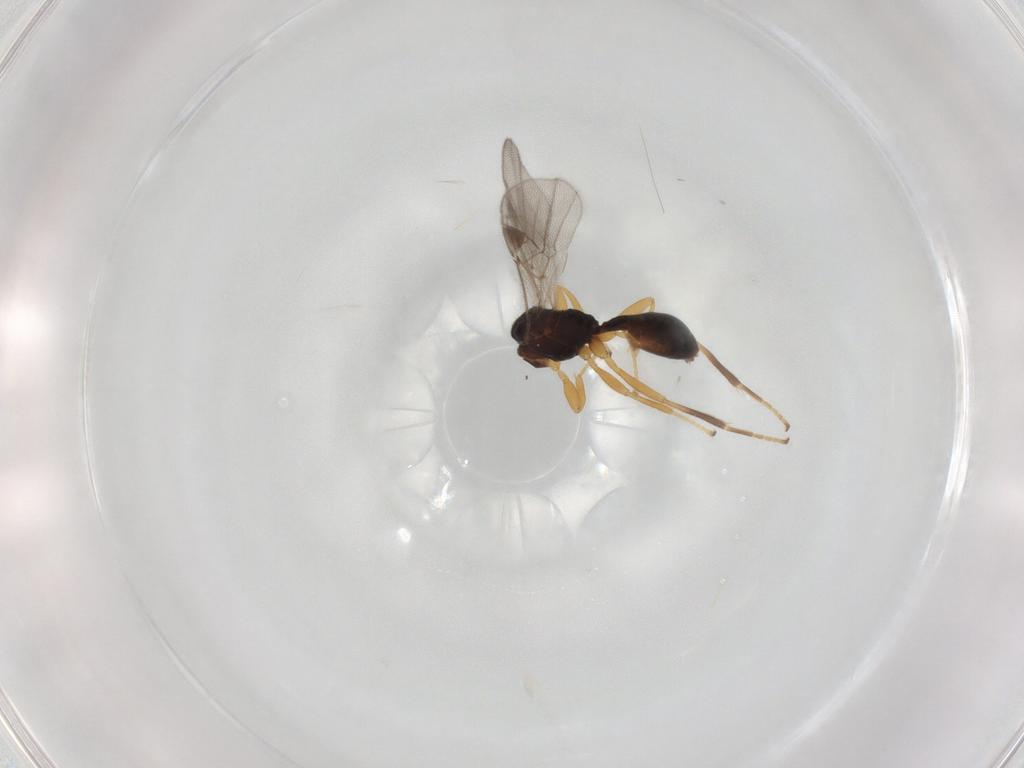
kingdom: Animalia
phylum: Arthropoda
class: Insecta
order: Hymenoptera
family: Braconidae
